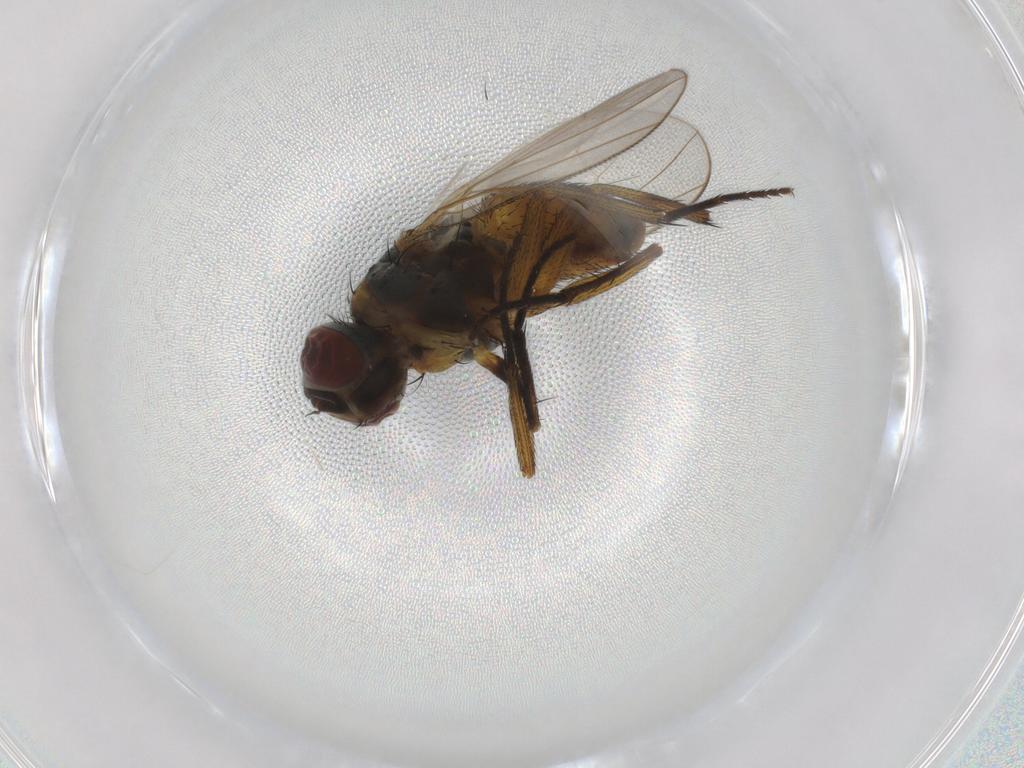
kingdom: Animalia
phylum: Arthropoda
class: Insecta
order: Diptera
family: Muscidae
